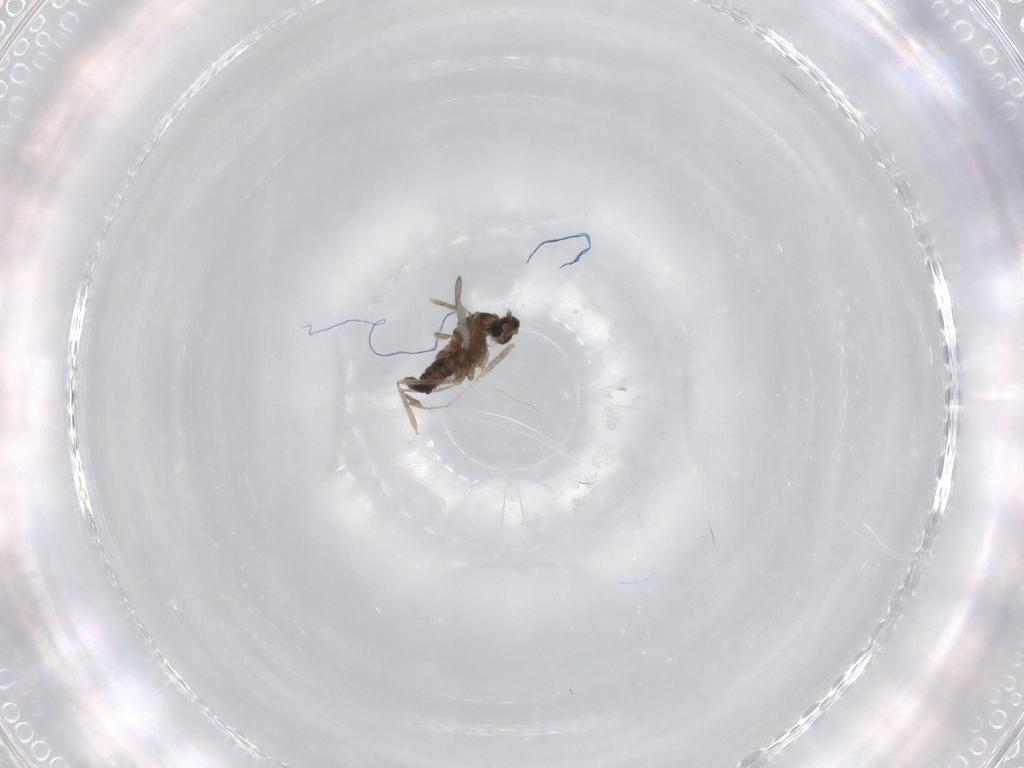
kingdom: Animalia
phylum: Arthropoda
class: Insecta
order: Diptera
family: Cecidomyiidae
